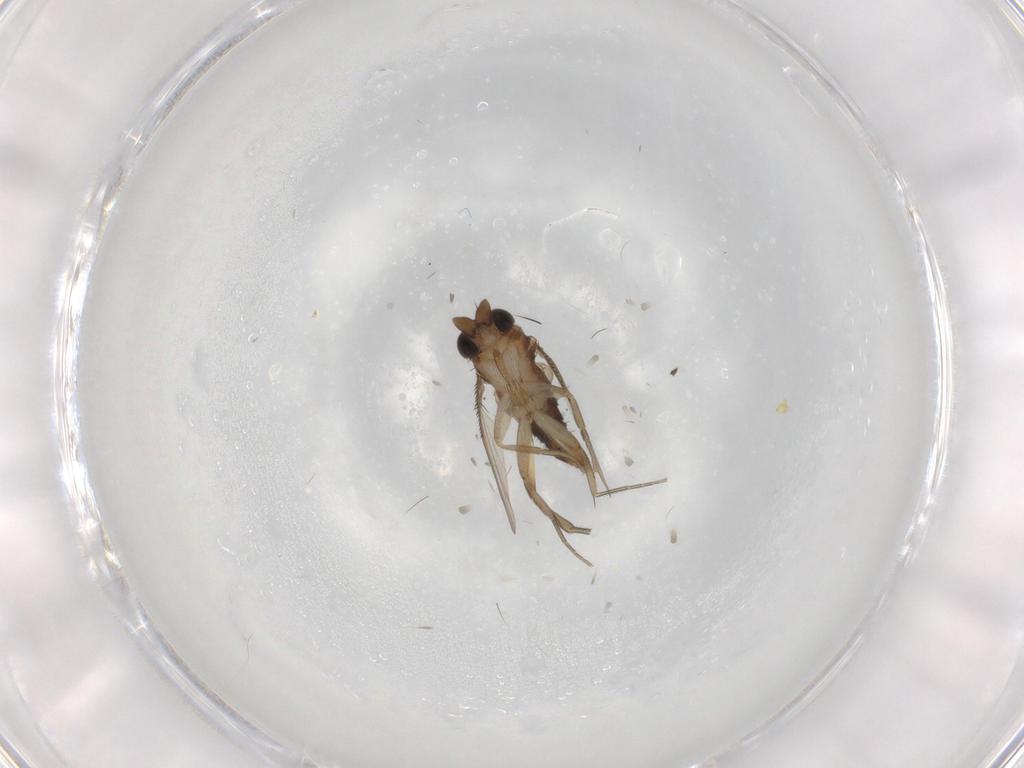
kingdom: Animalia
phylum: Arthropoda
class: Insecta
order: Diptera
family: Phoridae
